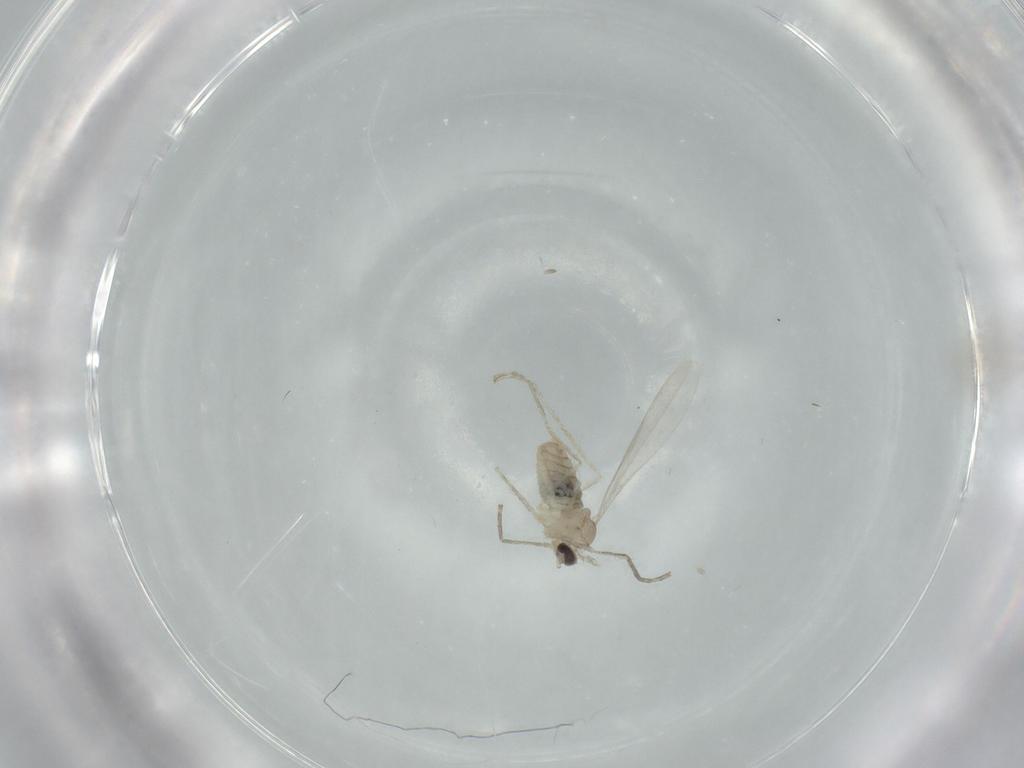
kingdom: Animalia
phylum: Arthropoda
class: Insecta
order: Diptera
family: Cecidomyiidae
